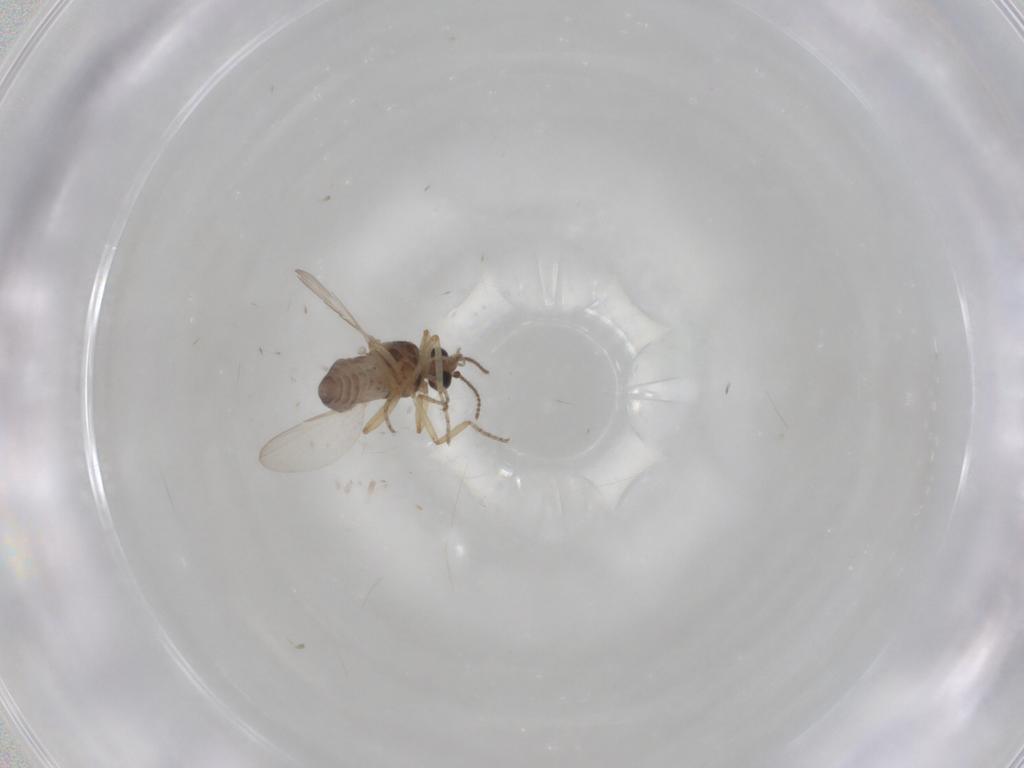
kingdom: Animalia
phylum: Arthropoda
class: Insecta
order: Diptera
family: Ceratopogonidae
